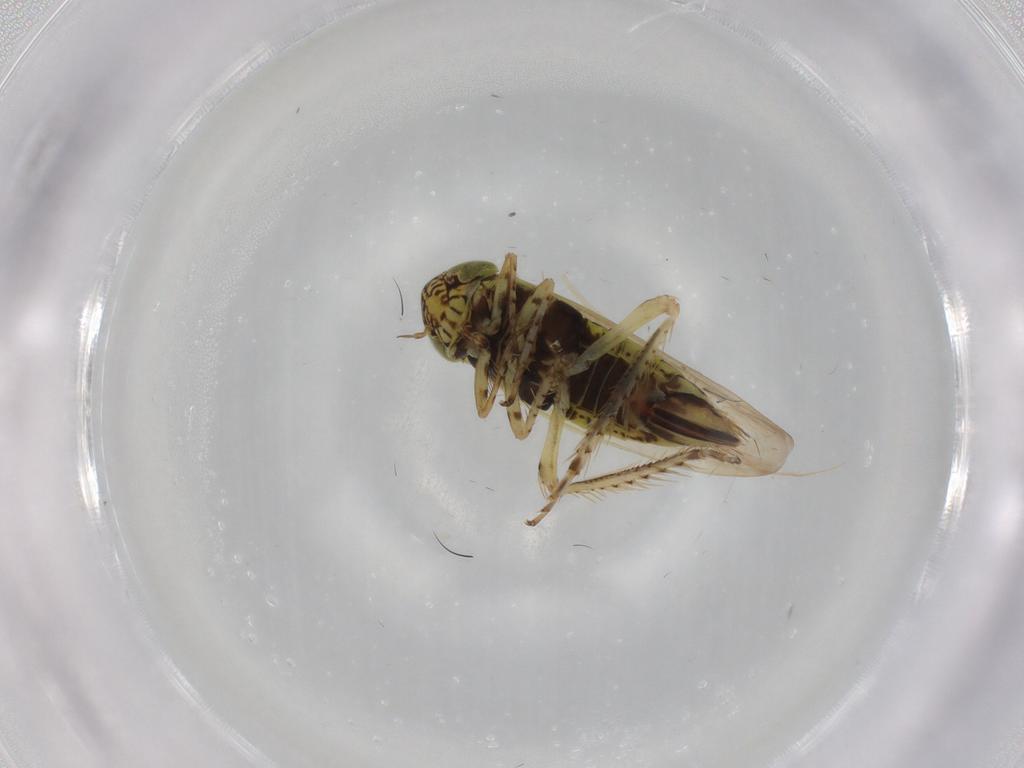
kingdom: Animalia
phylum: Arthropoda
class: Insecta
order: Hemiptera
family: Cicadellidae
